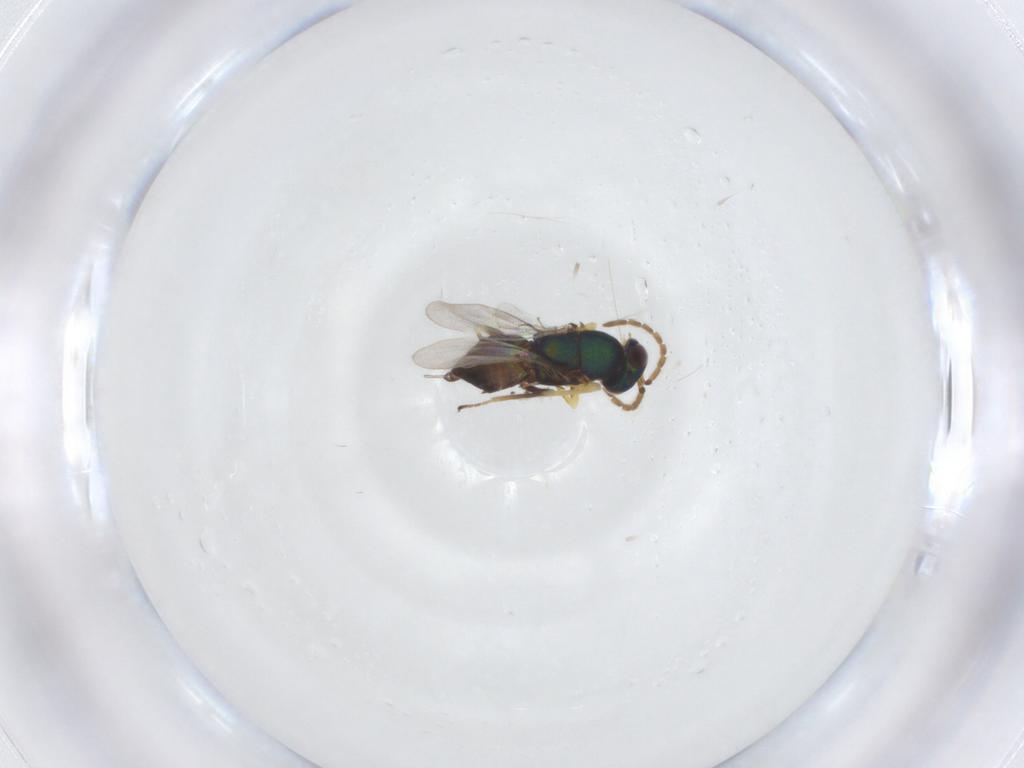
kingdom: Animalia
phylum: Arthropoda
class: Insecta
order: Hymenoptera
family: Encyrtidae
